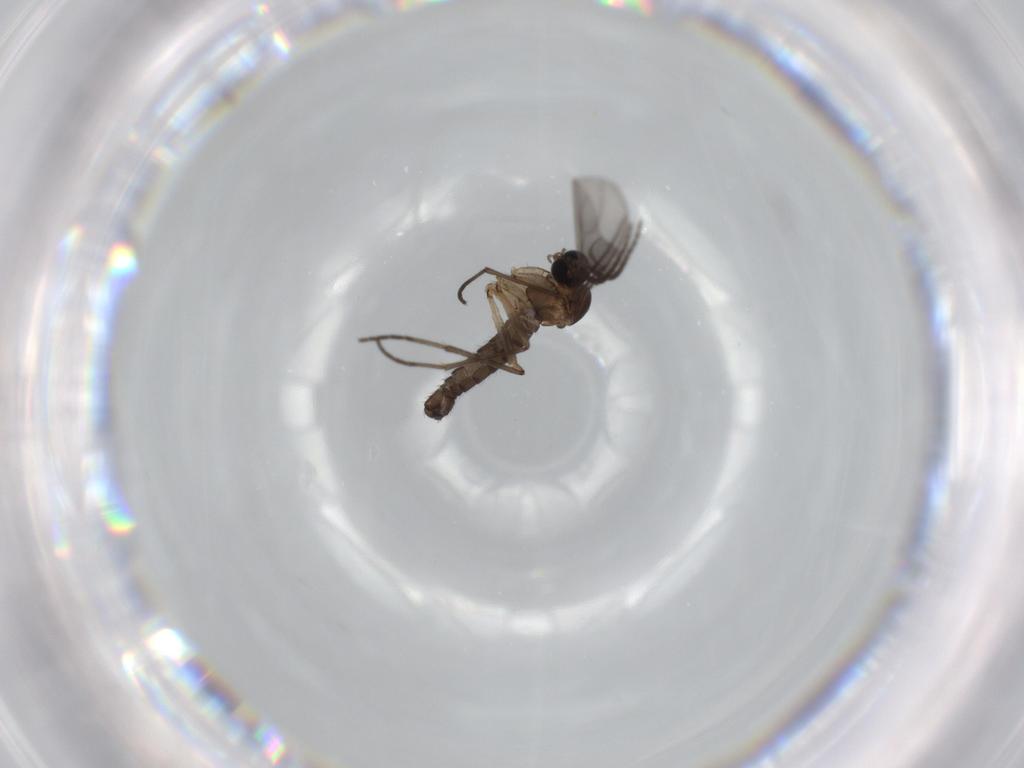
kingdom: Animalia
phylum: Arthropoda
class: Insecta
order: Diptera
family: Sciaridae
